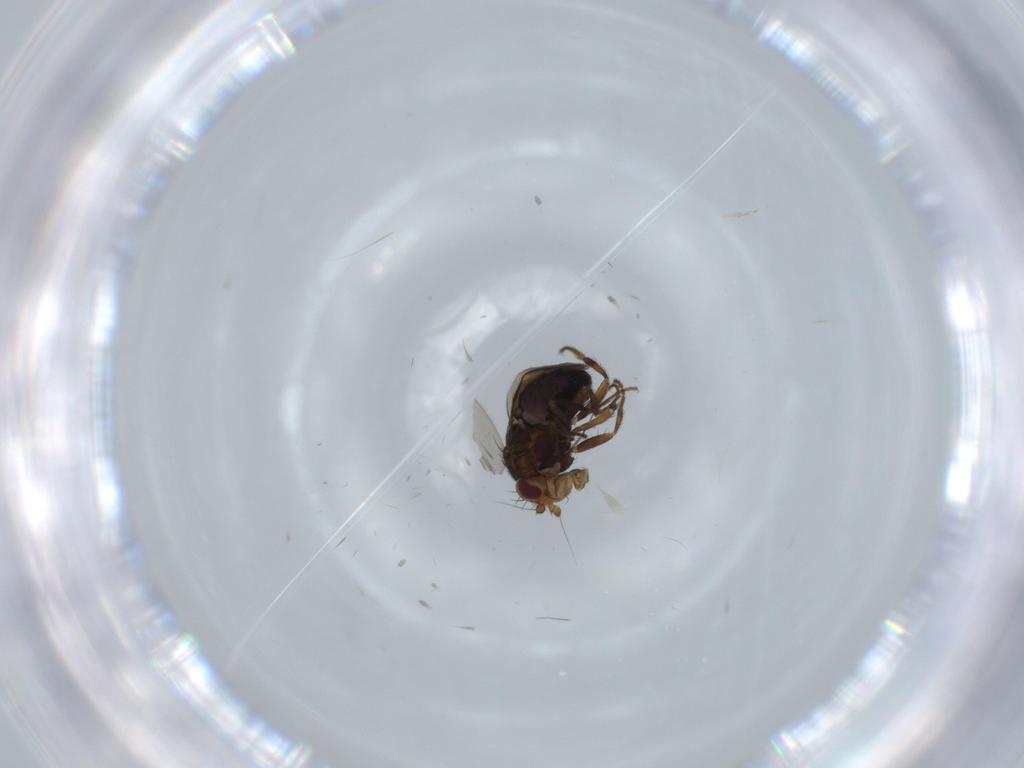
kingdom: Animalia
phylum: Arthropoda
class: Insecta
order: Diptera
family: Sphaeroceridae
